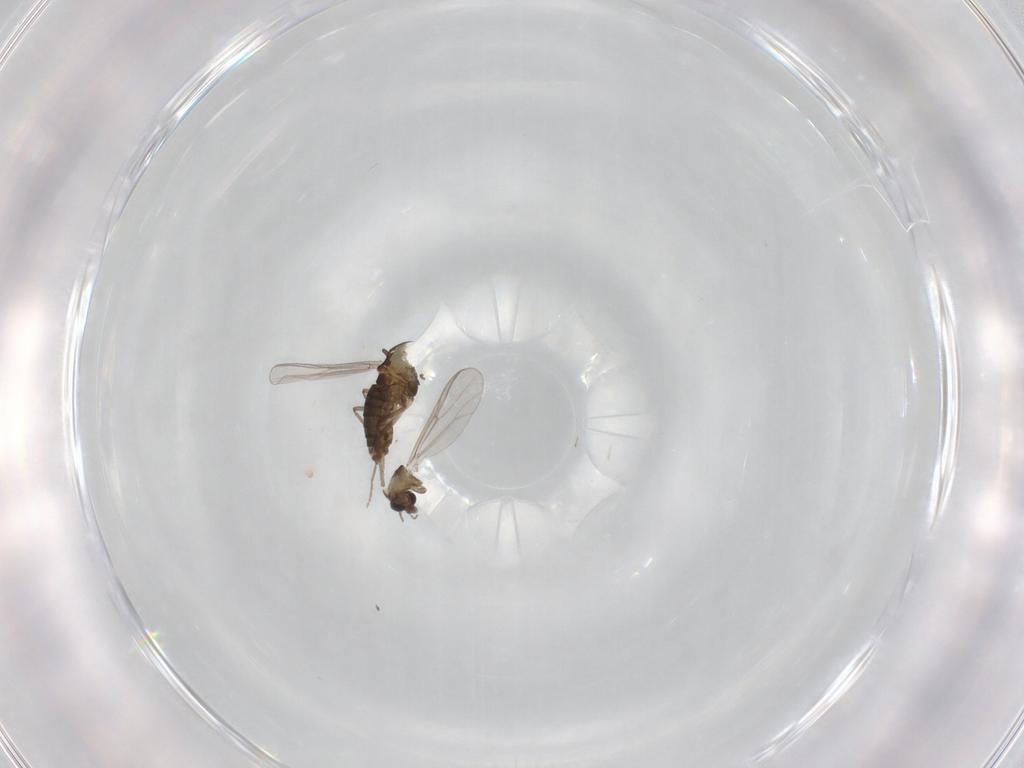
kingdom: Animalia
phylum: Arthropoda
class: Insecta
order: Diptera
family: Chironomidae
